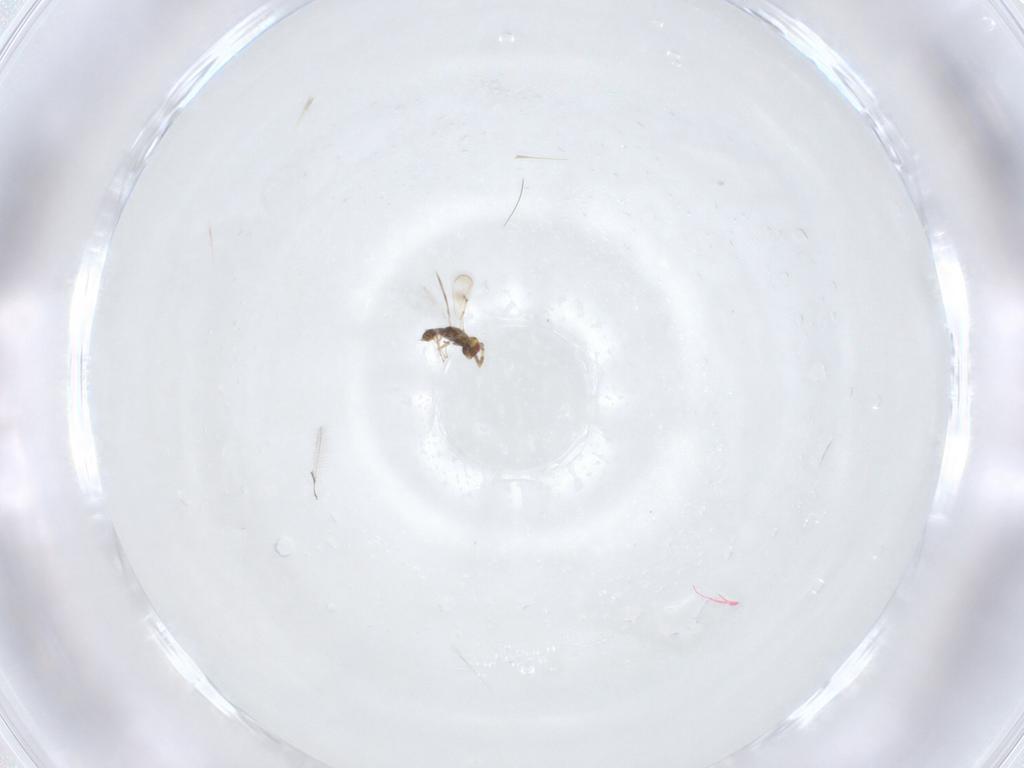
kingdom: Animalia
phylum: Arthropoda
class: Insecta
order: Hymenoptera
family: Eulophidae
